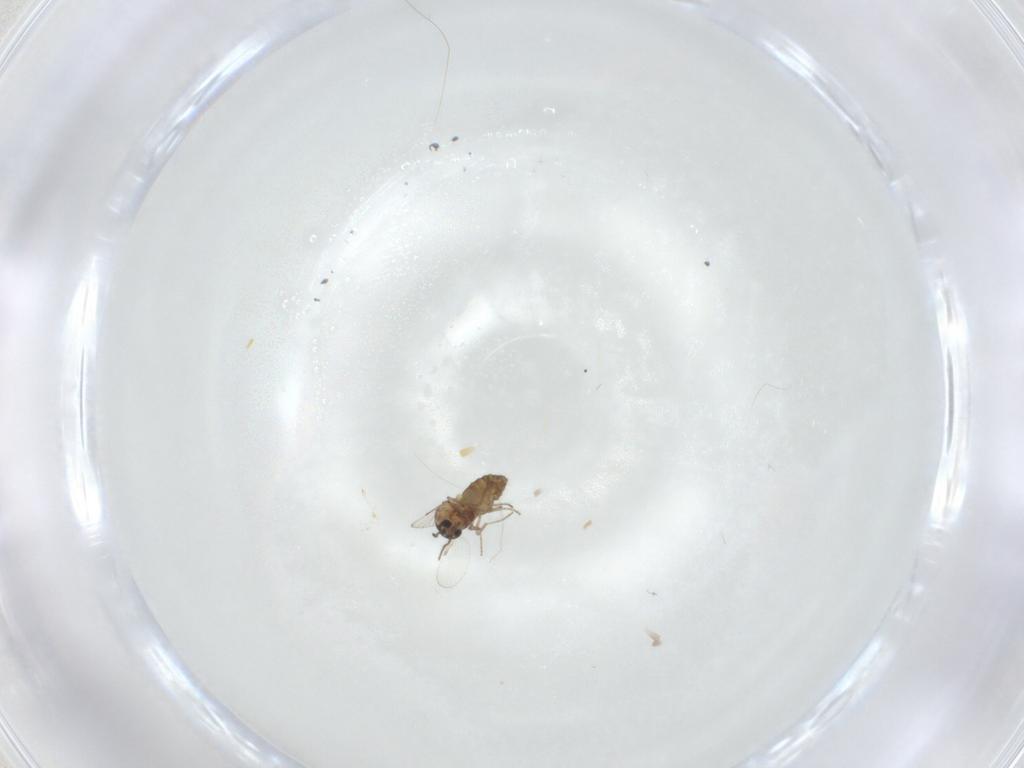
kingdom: Animalia
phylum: Arthropoda
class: Insecta
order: Diptera
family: Ceratopogonidae
